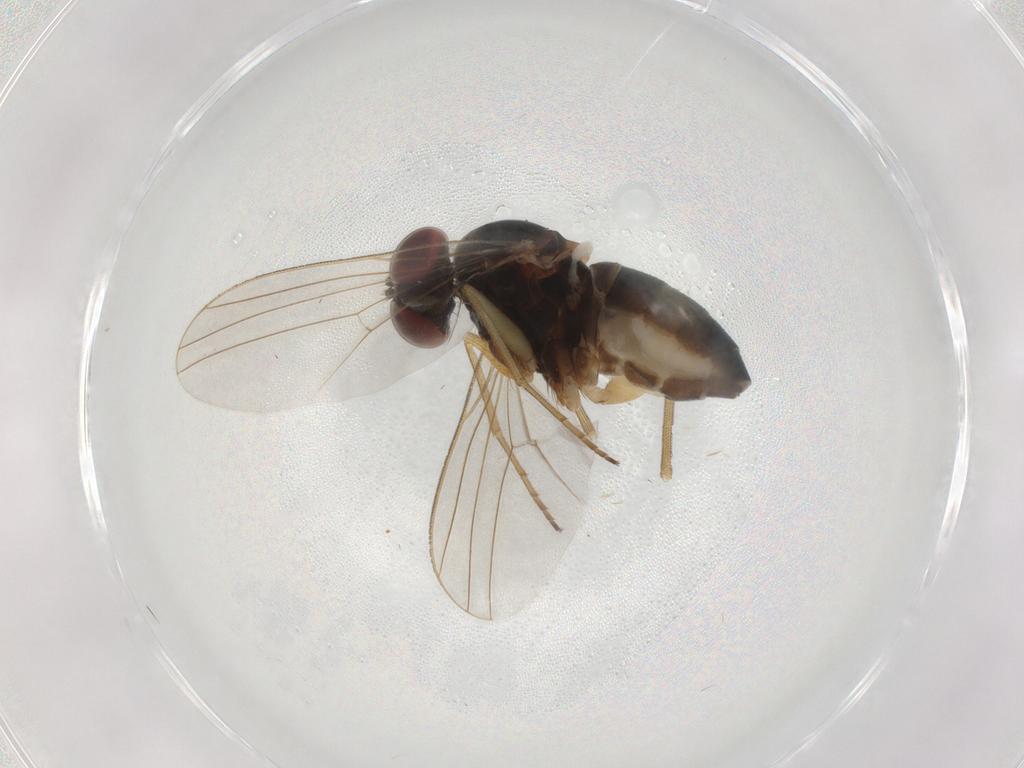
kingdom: Animalia
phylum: Arthropoda
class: Insecta
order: Diptera
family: Dolichopodidae
